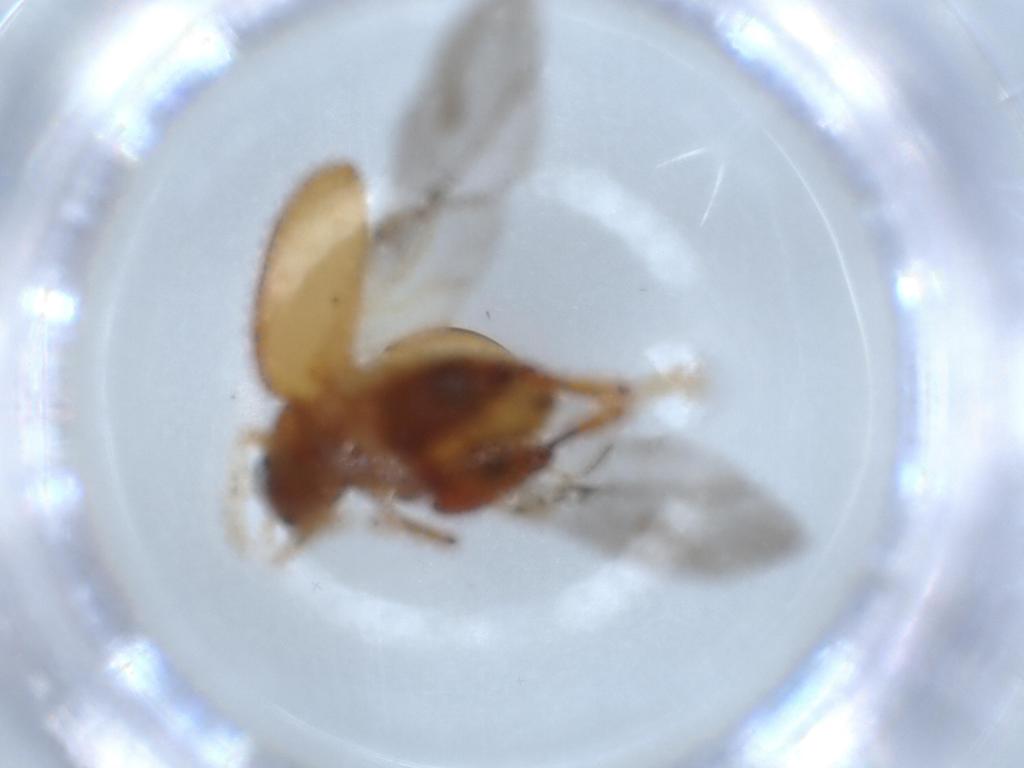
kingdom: Animalia
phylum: Arthropoda
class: Insecta
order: Coleoptera
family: Chrysomelidae
